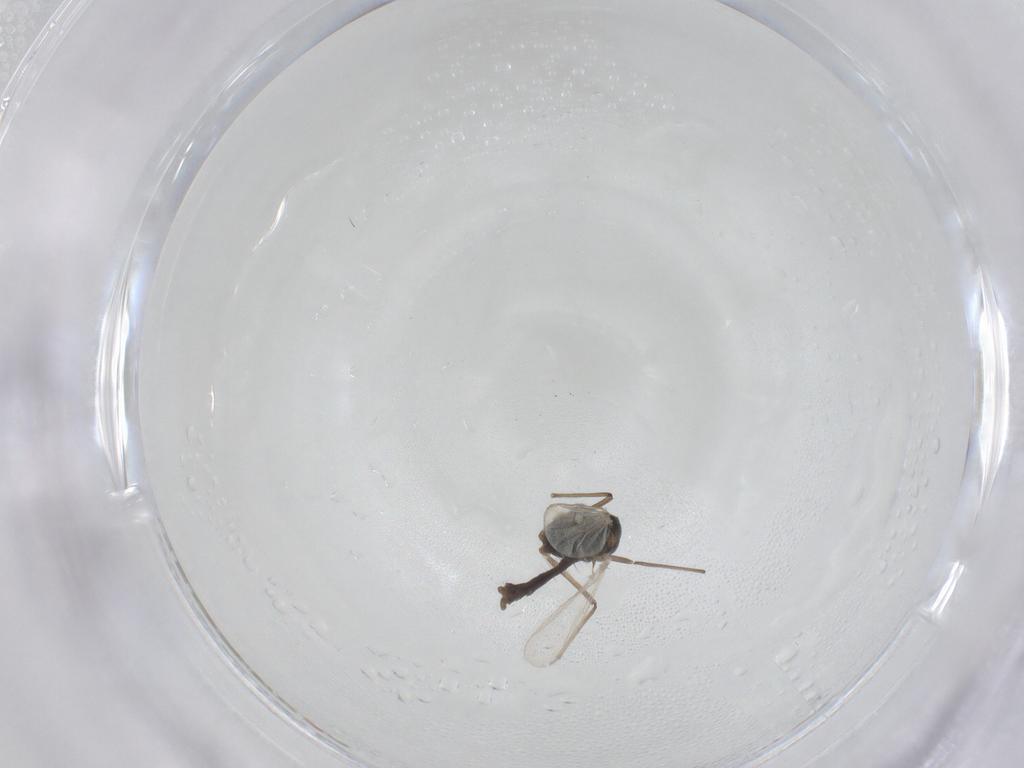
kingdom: Animalia
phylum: Arthropoda
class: Insecta
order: Diptera
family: Chironomidae
